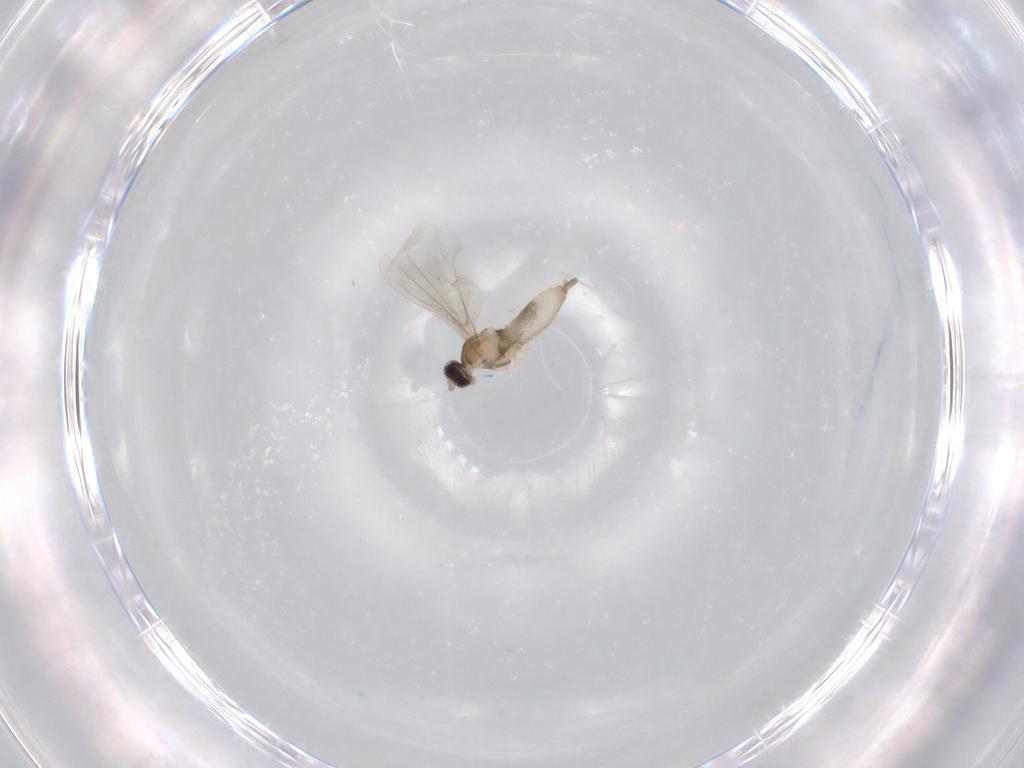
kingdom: Animalia
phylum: Arthropoda
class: Insecta
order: Diptera
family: Cecidomyiidae
